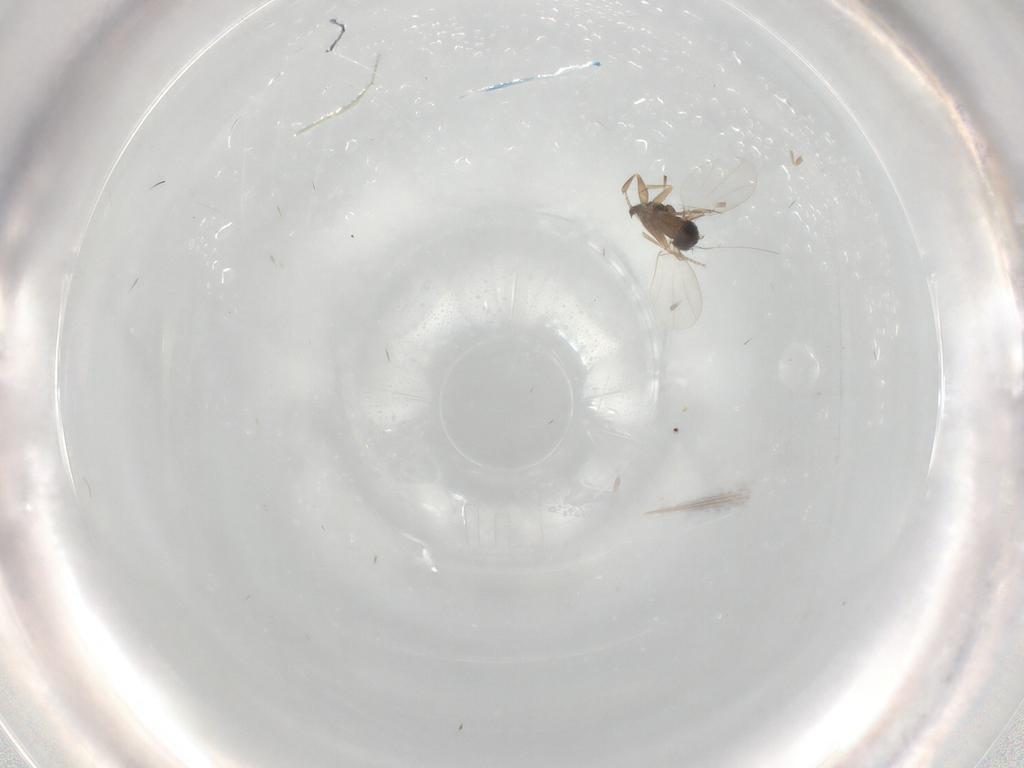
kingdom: Animalia
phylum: Arthropoda
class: Insecta
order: Diptera
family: Phoridae
